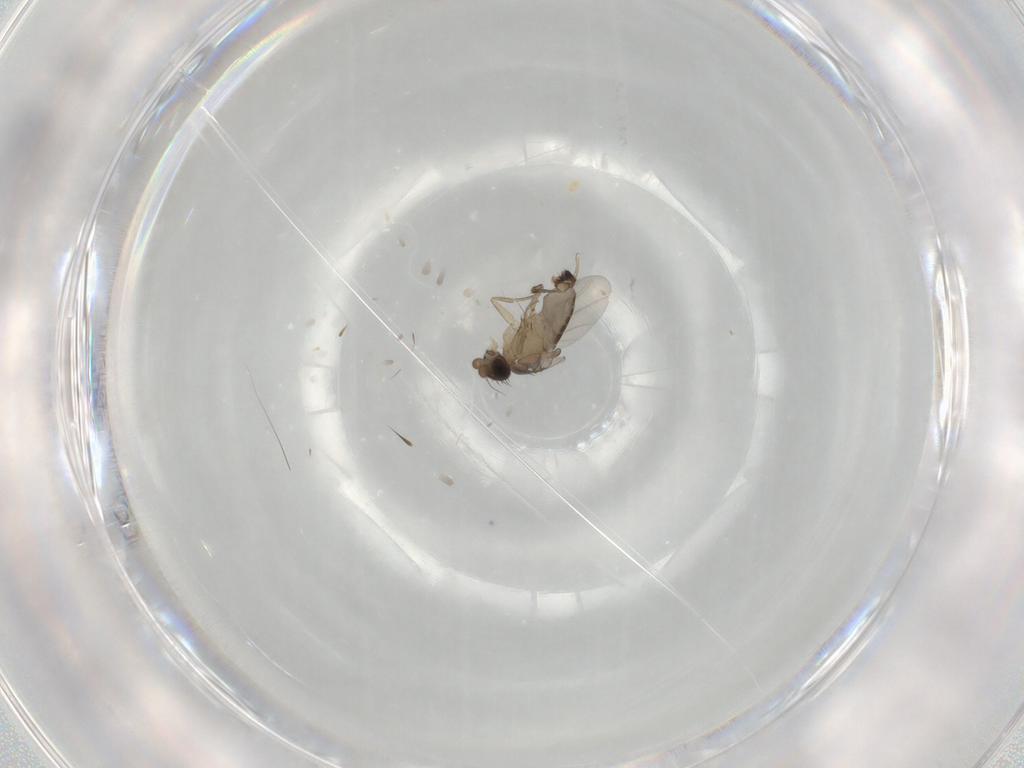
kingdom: Animalia
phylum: Arthropoda
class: Insecta
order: Diptera
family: Phoridae
